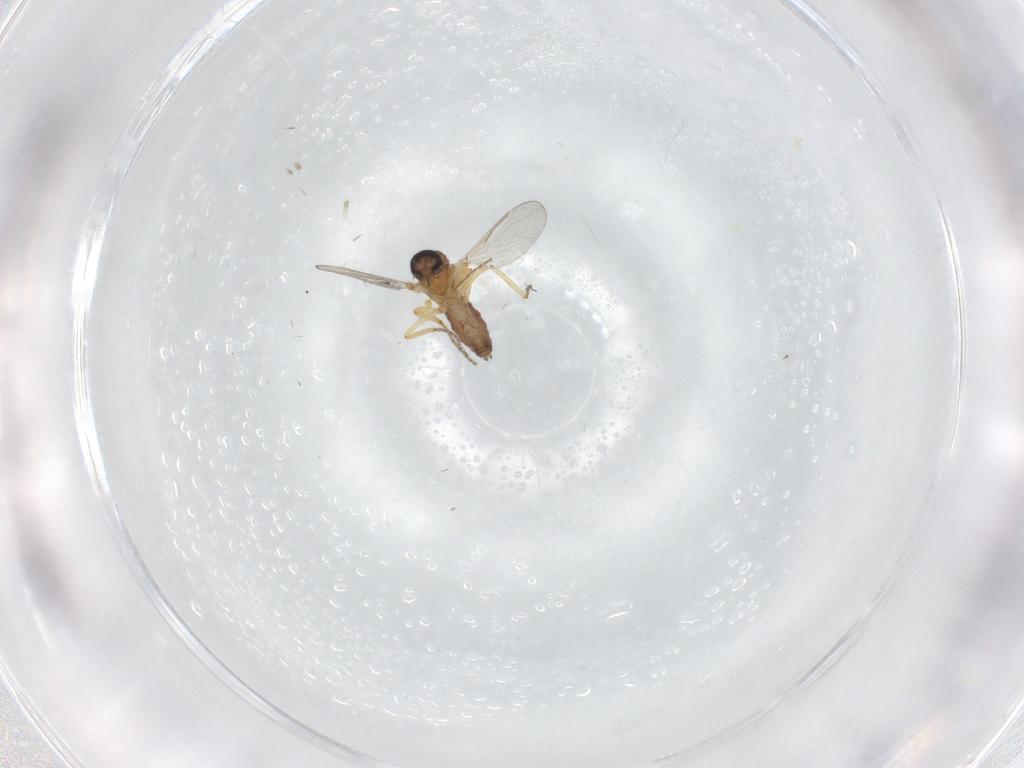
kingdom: Animalia
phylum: Arthropoda
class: Insecta
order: Diptera
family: Ceratopogonidae
